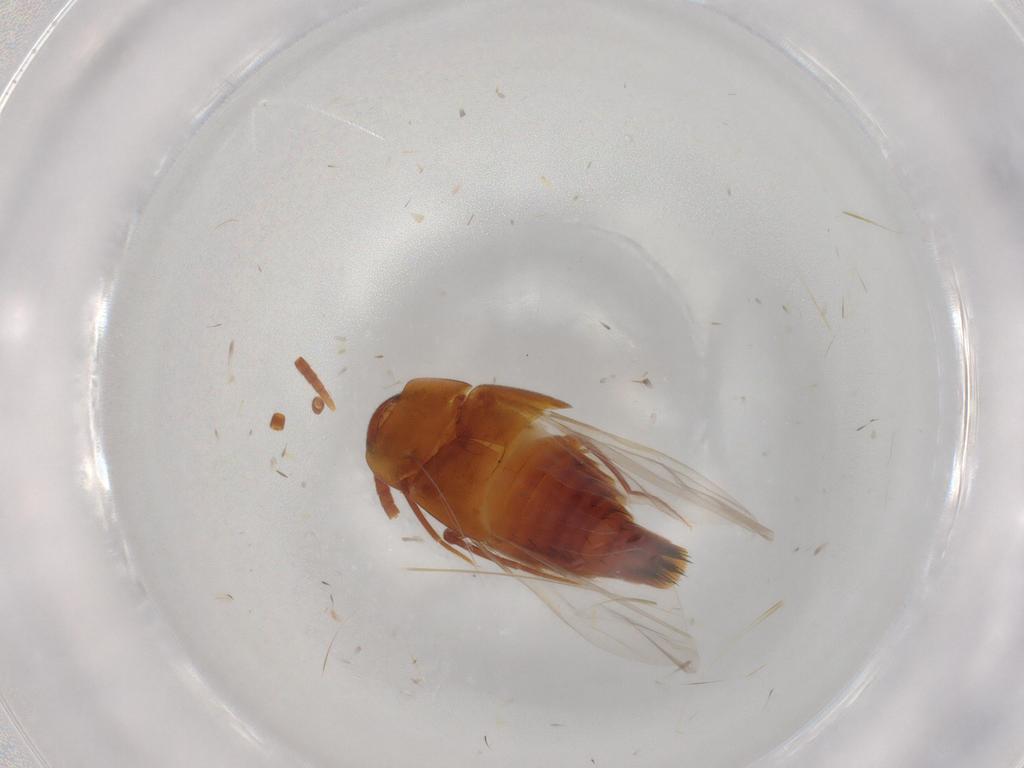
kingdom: Animalia
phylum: Arthropoda
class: Insecta
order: Coleoptera
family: Staphylinidae
